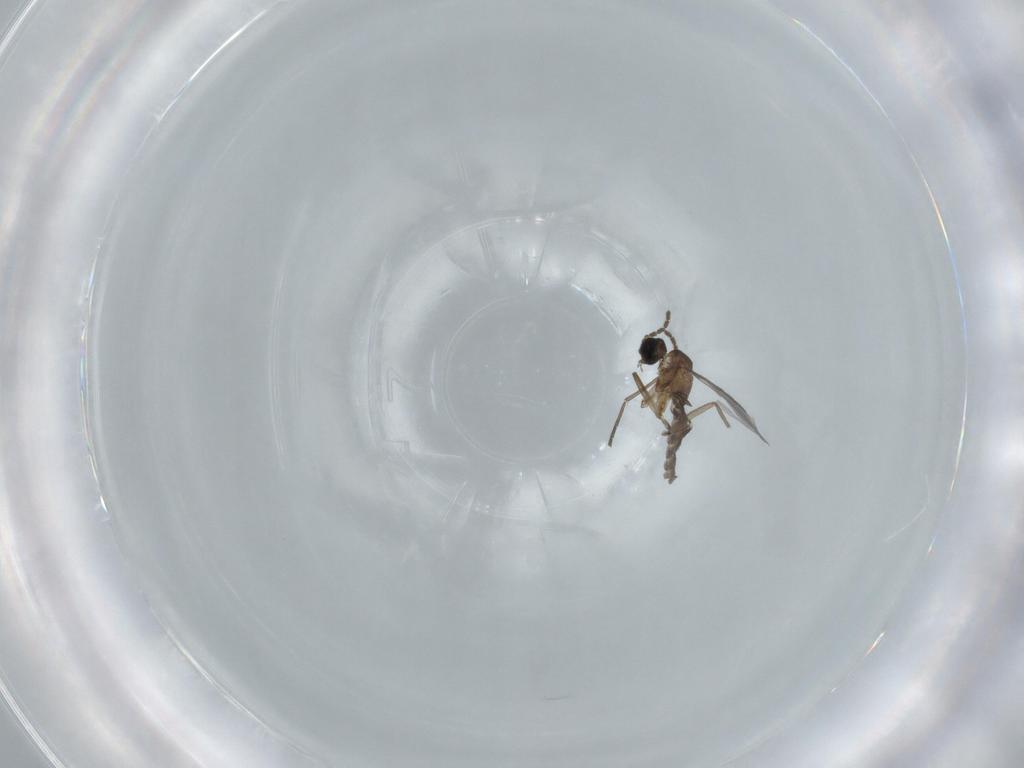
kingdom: Animalia
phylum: Arthropoda
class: Insecta
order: Diptera
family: Sciaridae
